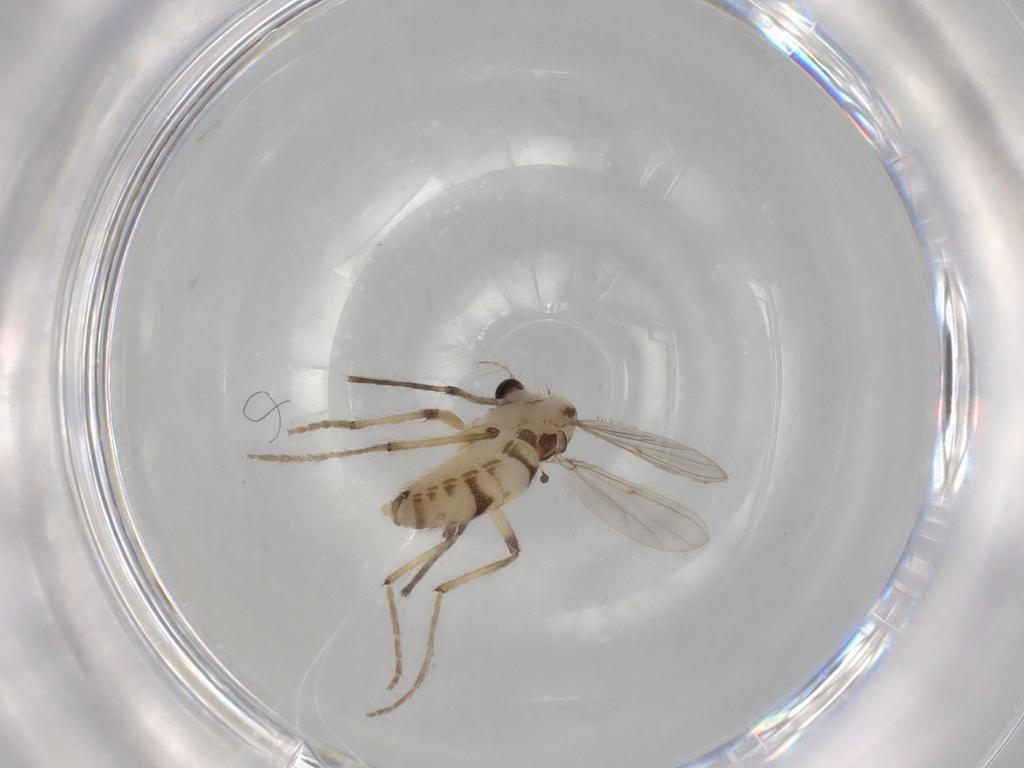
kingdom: Animalia
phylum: Arthropoda
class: Insecta
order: Diptera
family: Chironomidae
